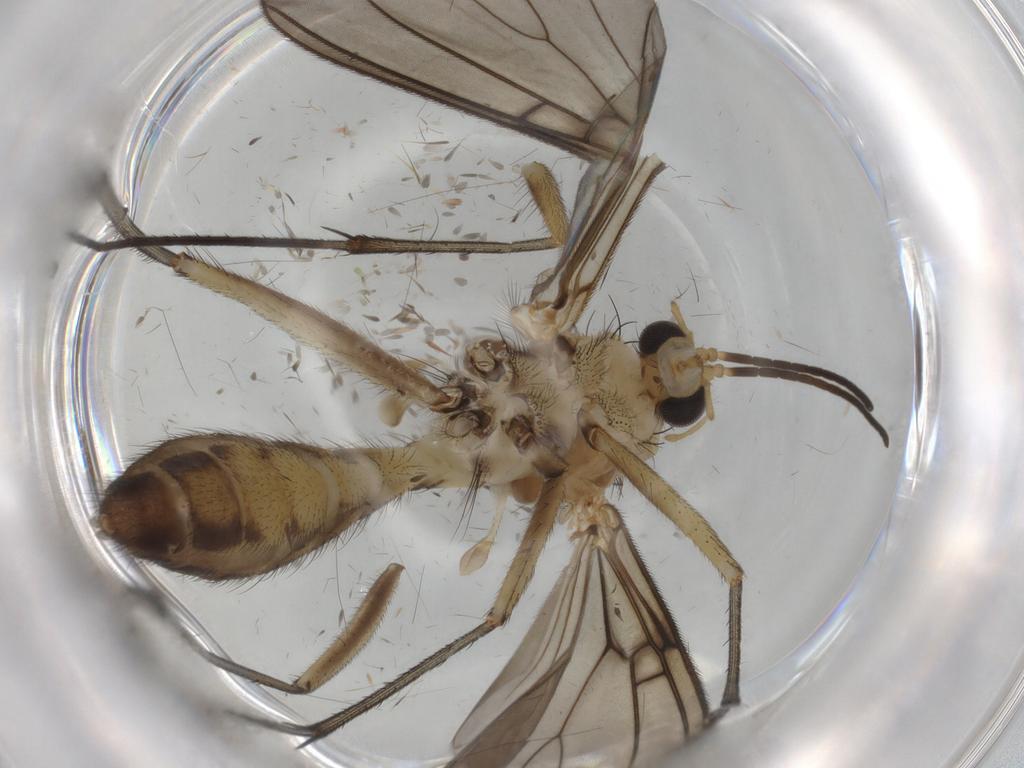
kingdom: Animalia
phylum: Arthropoda
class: Insecta
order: Diptera
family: Mycetophilidae
